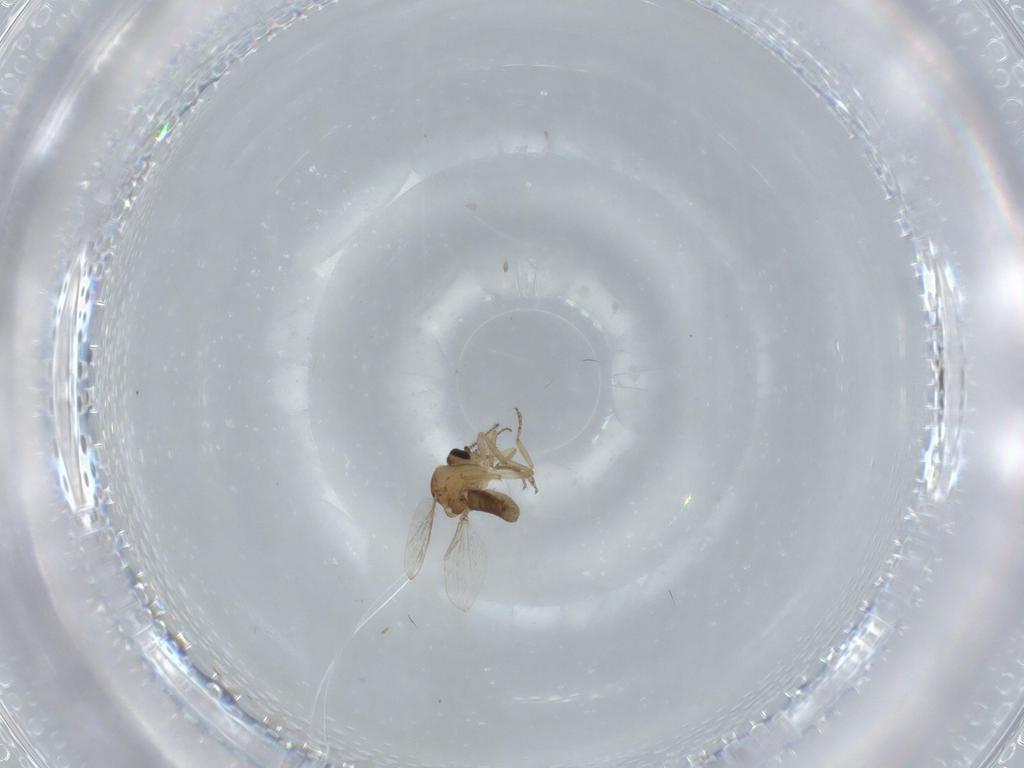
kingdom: Animalia
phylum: Arthropoda
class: Insecta
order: Diptera
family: Ceratopogonidae
